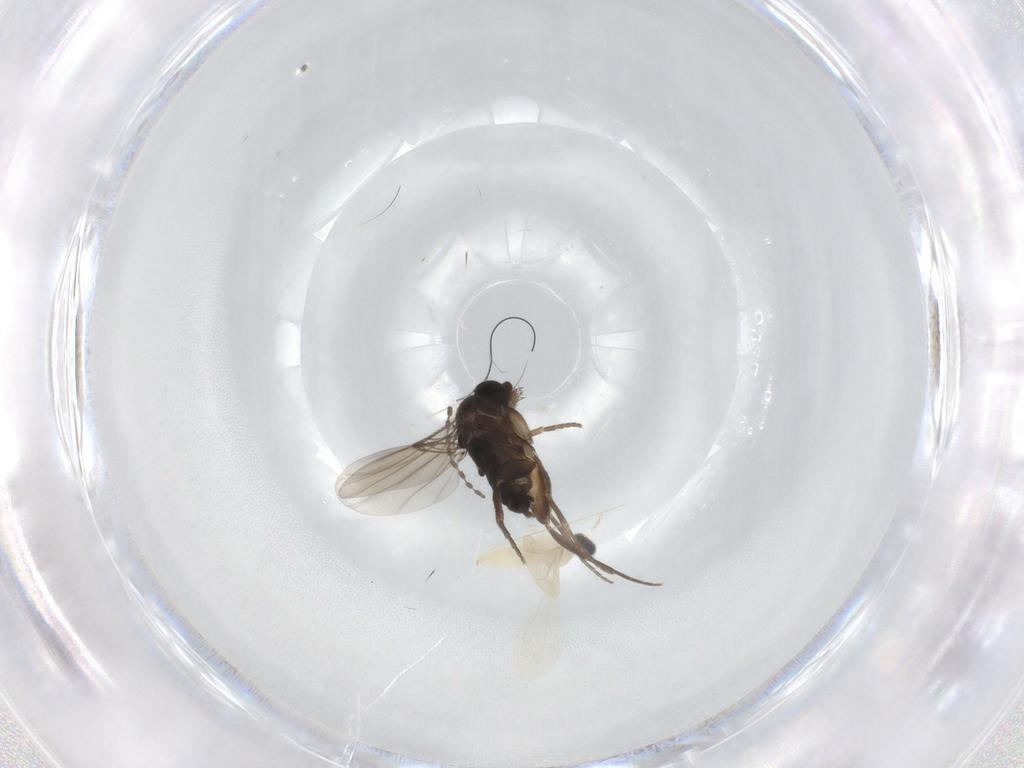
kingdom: Animalia
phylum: Arthropoda
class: Insecta
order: Diptera
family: Cecidomyiidae
